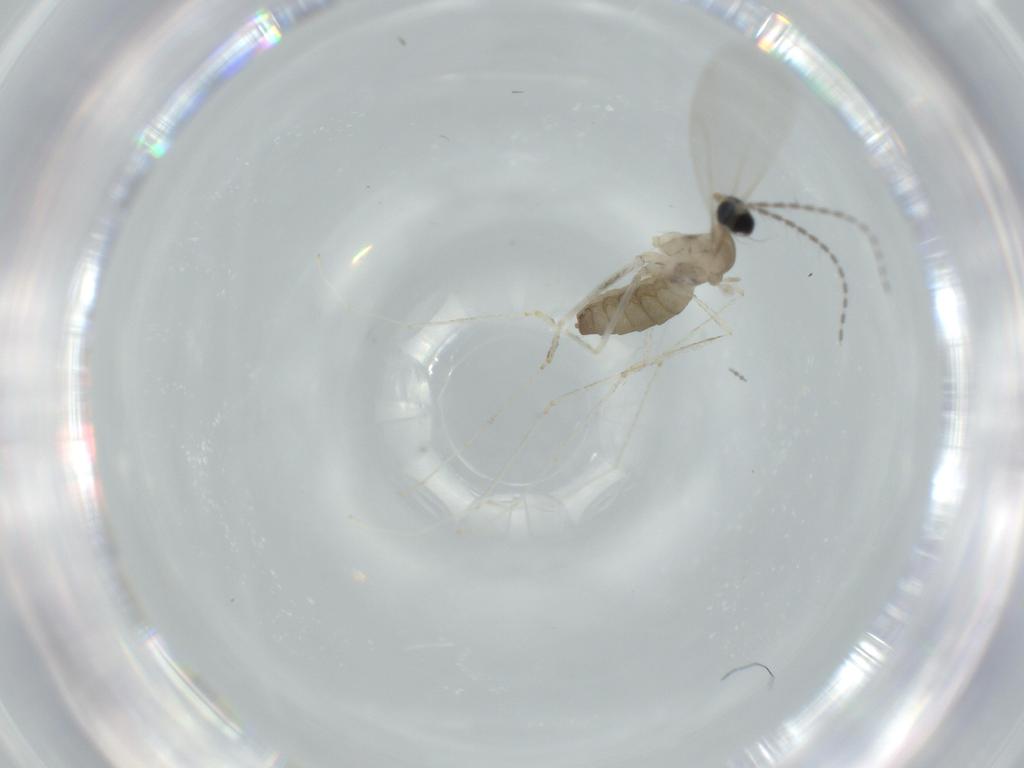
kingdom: Animalia
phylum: Arthropoda
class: Insecta
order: Diptera
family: Cecidomyiidae
